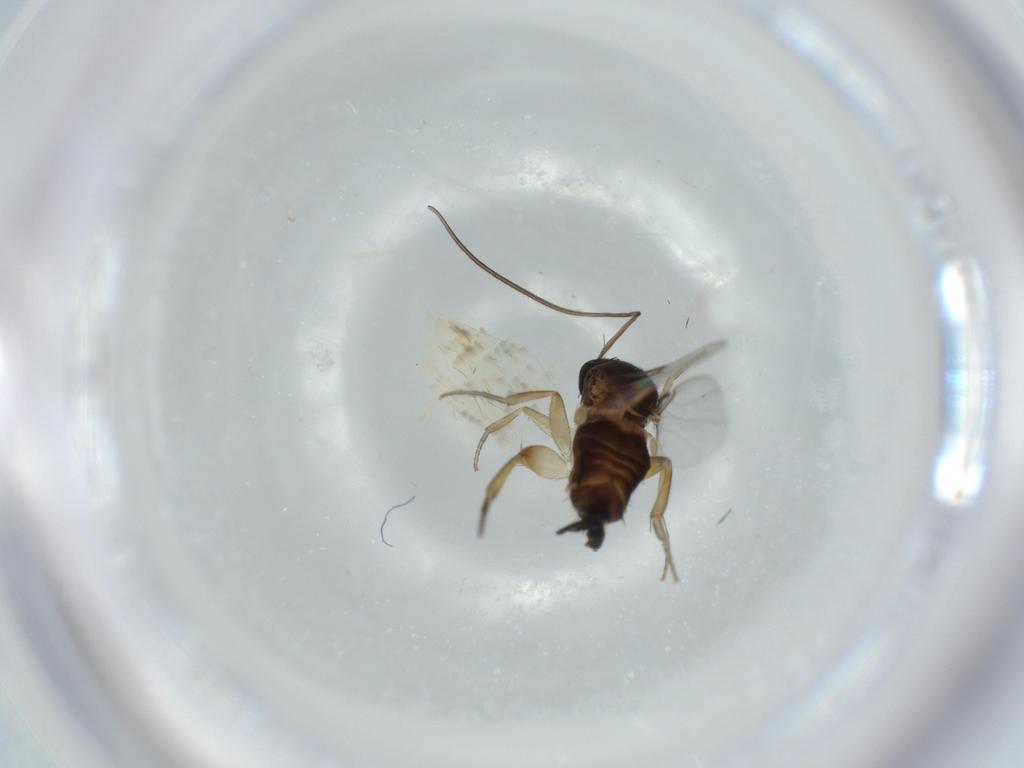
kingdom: Animalia
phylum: Arthropoda
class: Insecta
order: Diptera
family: Phoridae
